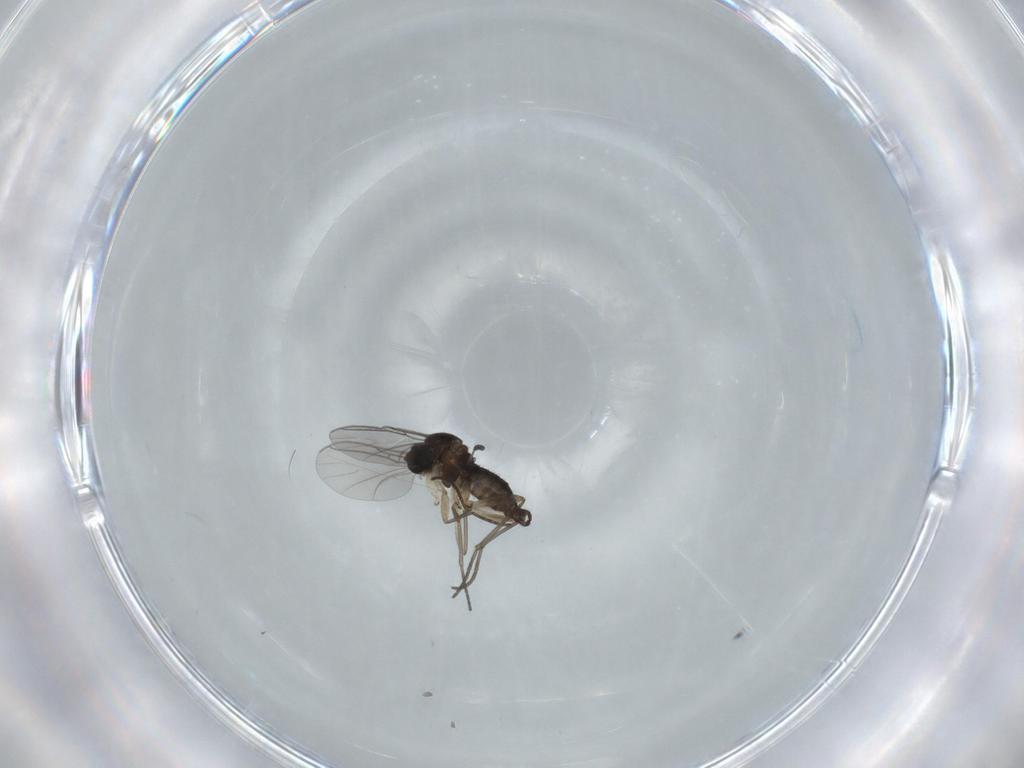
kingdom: Animalia
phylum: Arthropoda
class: Insecta
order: Diptera
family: Sciaridae
